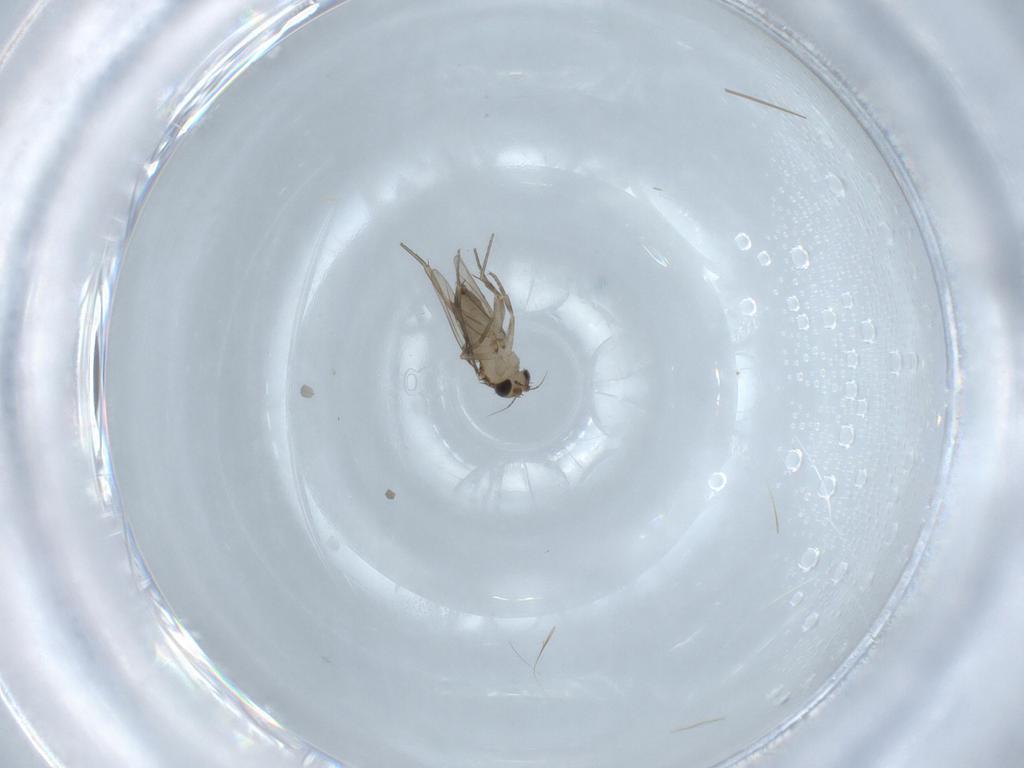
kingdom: Animalia
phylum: Arthropoda
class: Insecta
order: Diptera
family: Phoridae
